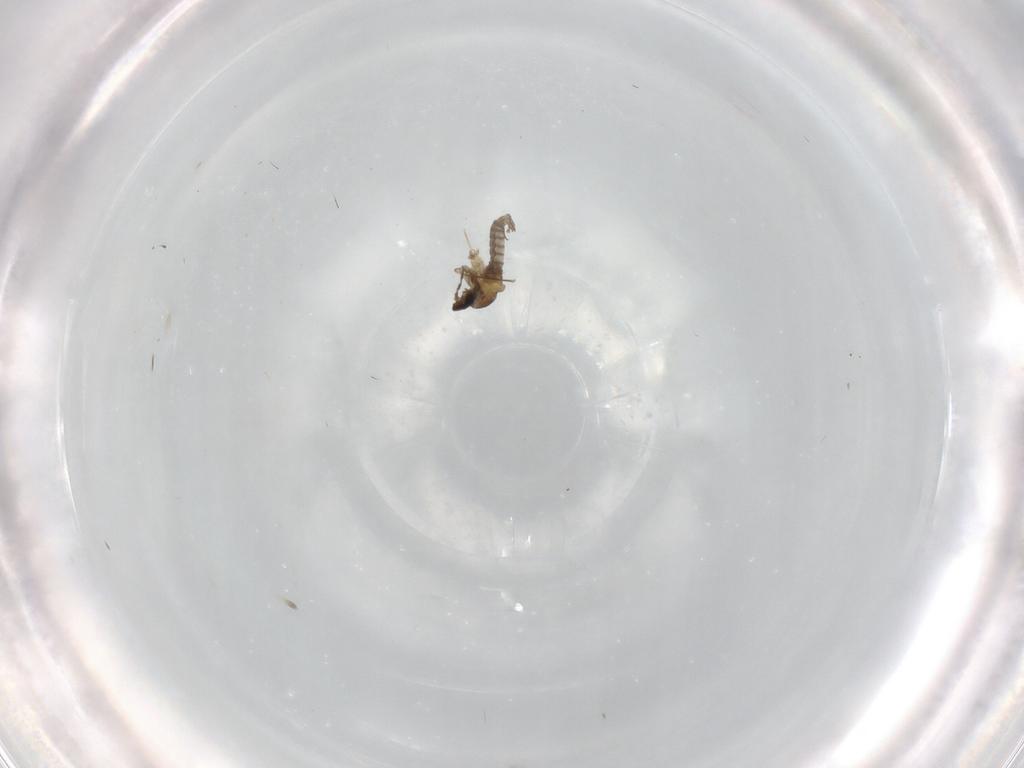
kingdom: Animalia
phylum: Arthropoda
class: Insecta
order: Diptera
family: Cecidomyiidae
